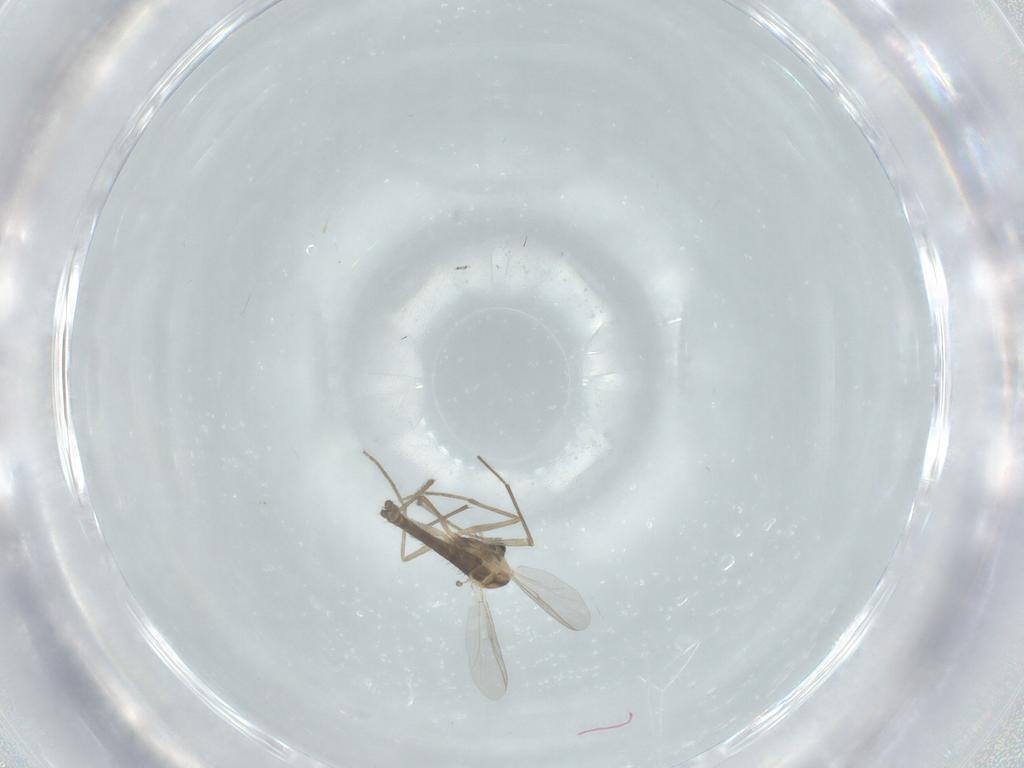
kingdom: Animalia
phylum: Arthropoda
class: Insecta
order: Diptera
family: Chironomidae
